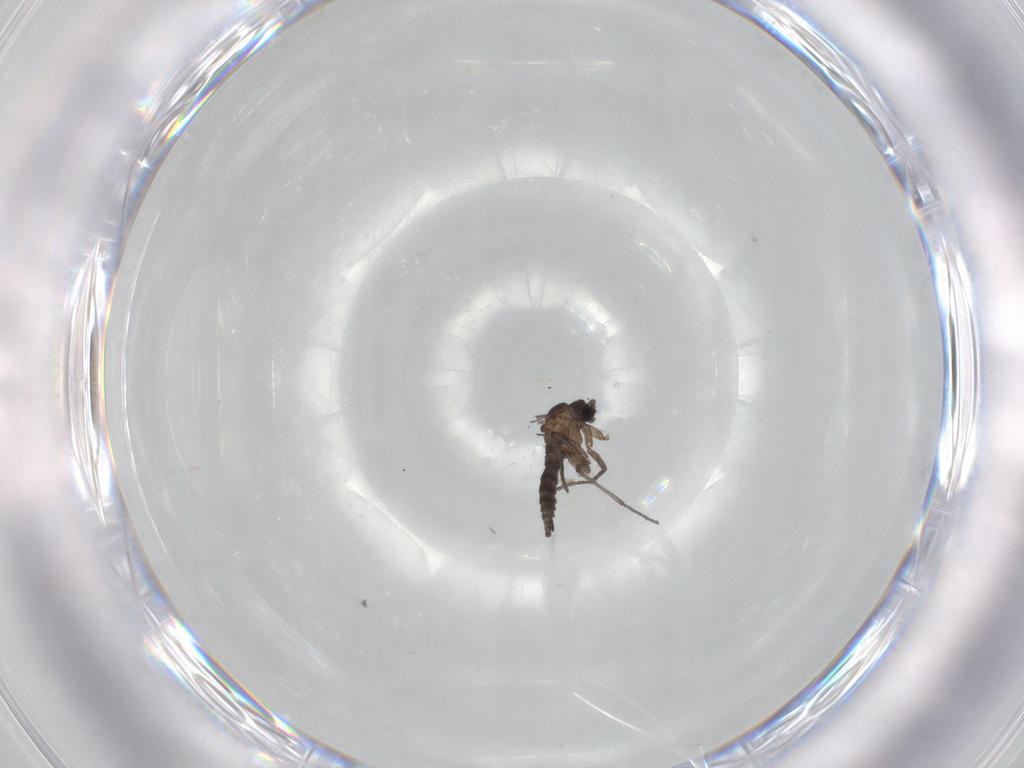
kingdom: Animalia
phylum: Arthropoda
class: Insecta
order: Diptera
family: Sciaridae
